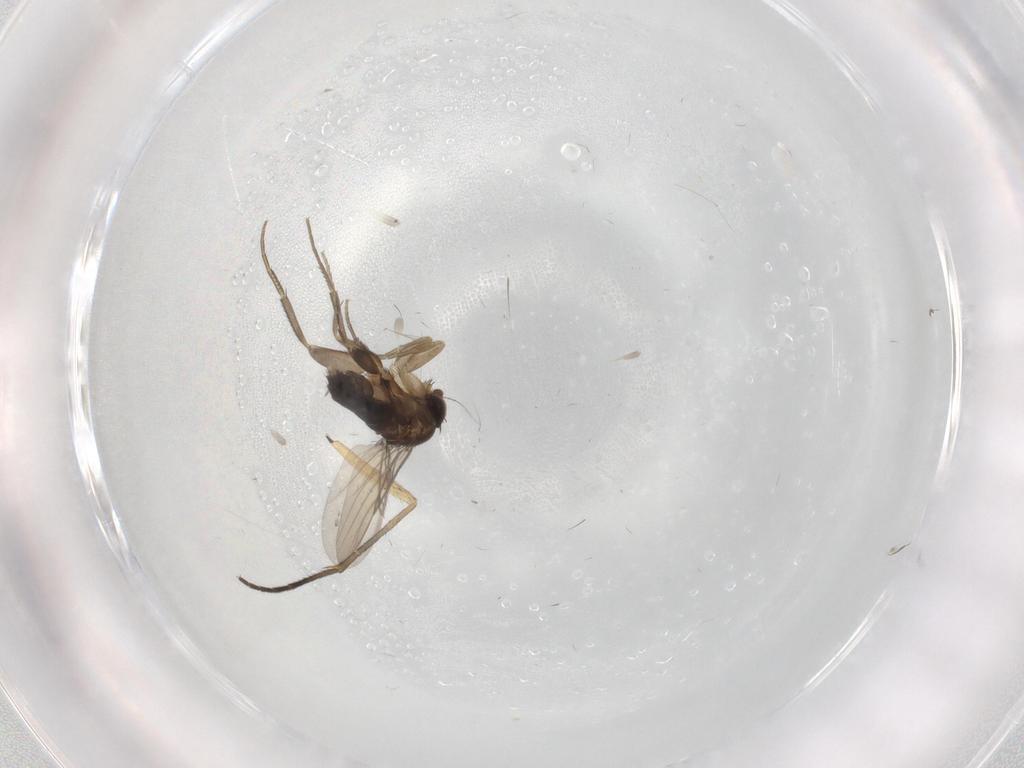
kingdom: Animalia
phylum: Arthropoda
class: Insecta
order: Diptera
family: Phoridae
